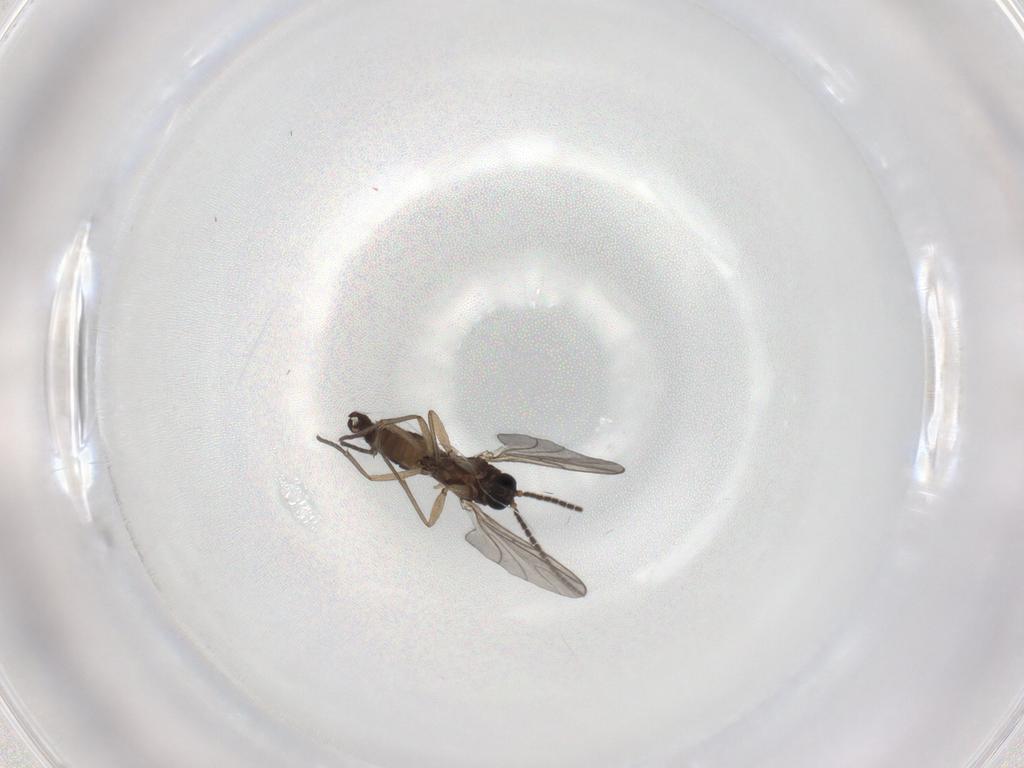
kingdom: Animalia
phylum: Arthropoda
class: Insecta
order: Diptera
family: Sciaridae
